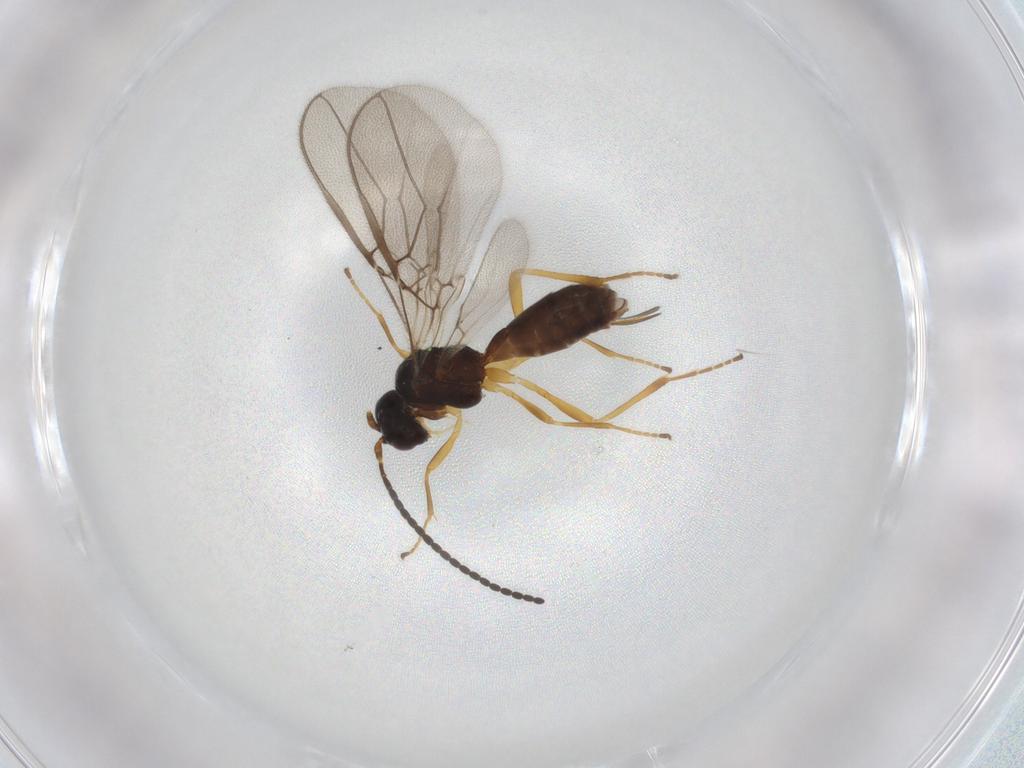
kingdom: Animalia
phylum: Arthropoda
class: Insecta
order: Hymenoptera
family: Braconidae
